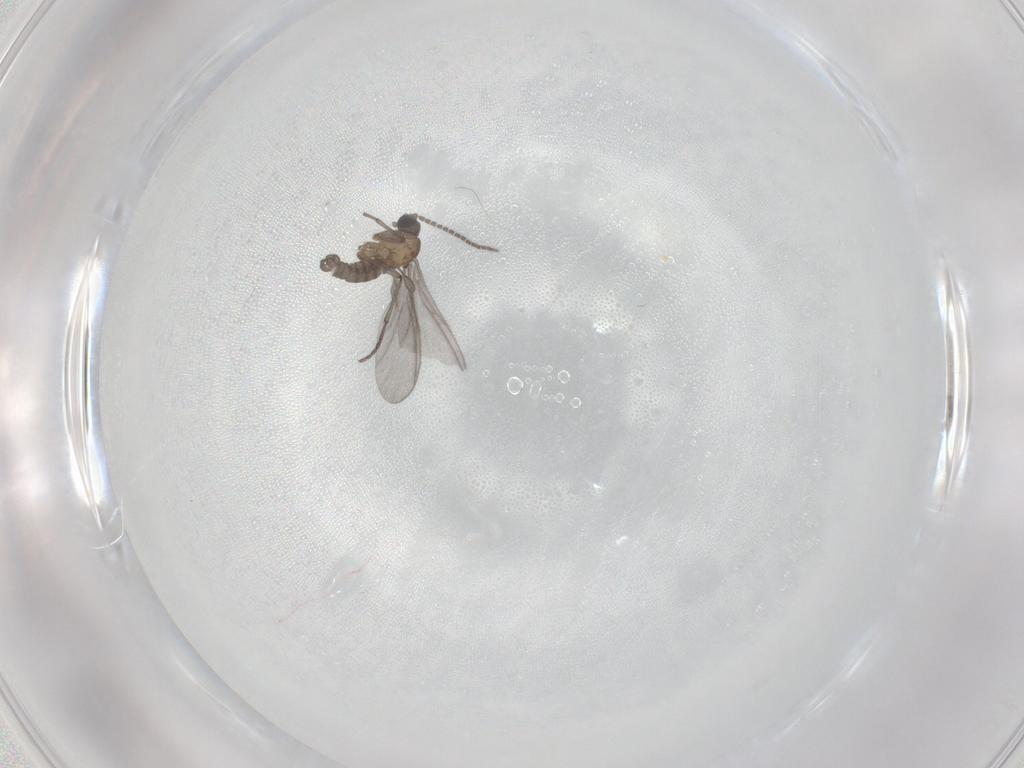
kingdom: Animalia
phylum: Arthropoda
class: Insecta
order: Diptera
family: Sciaridae
